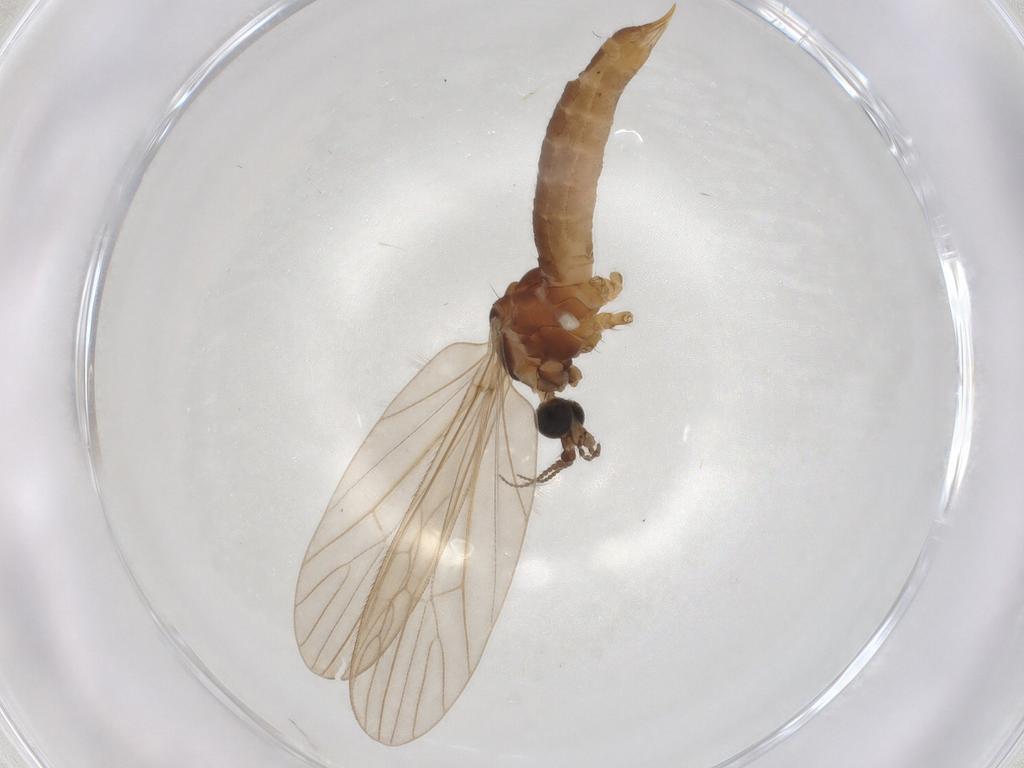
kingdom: Animalia
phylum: Arthropoda
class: Insecta
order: Diptera
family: Limoniidae
